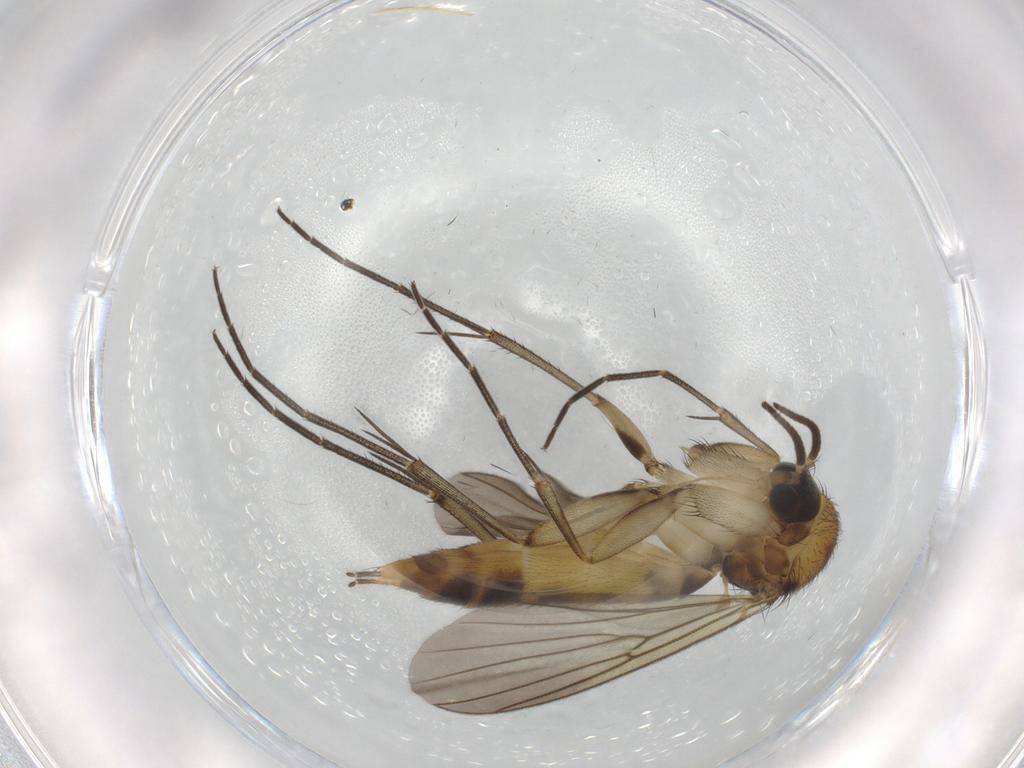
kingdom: Animalia
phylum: Arthropoda
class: Insecta
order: Diptera
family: Mycetophilidae
